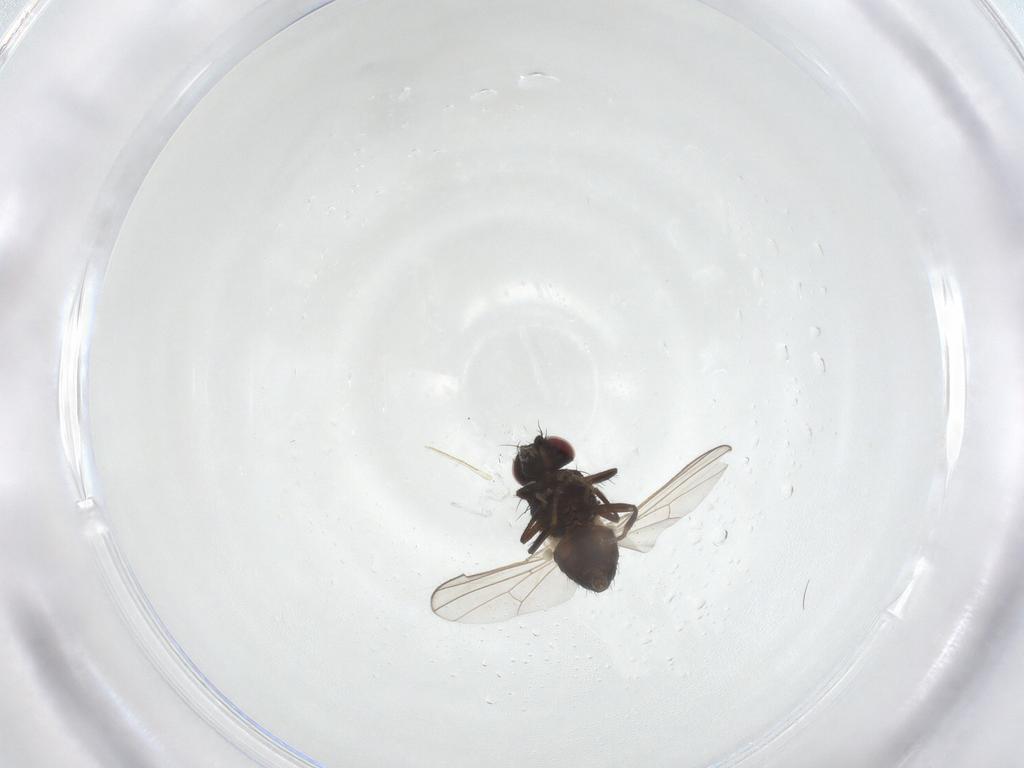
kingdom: Animalia
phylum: Arthropoda
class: Insecta
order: Diptera
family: Carnidae
